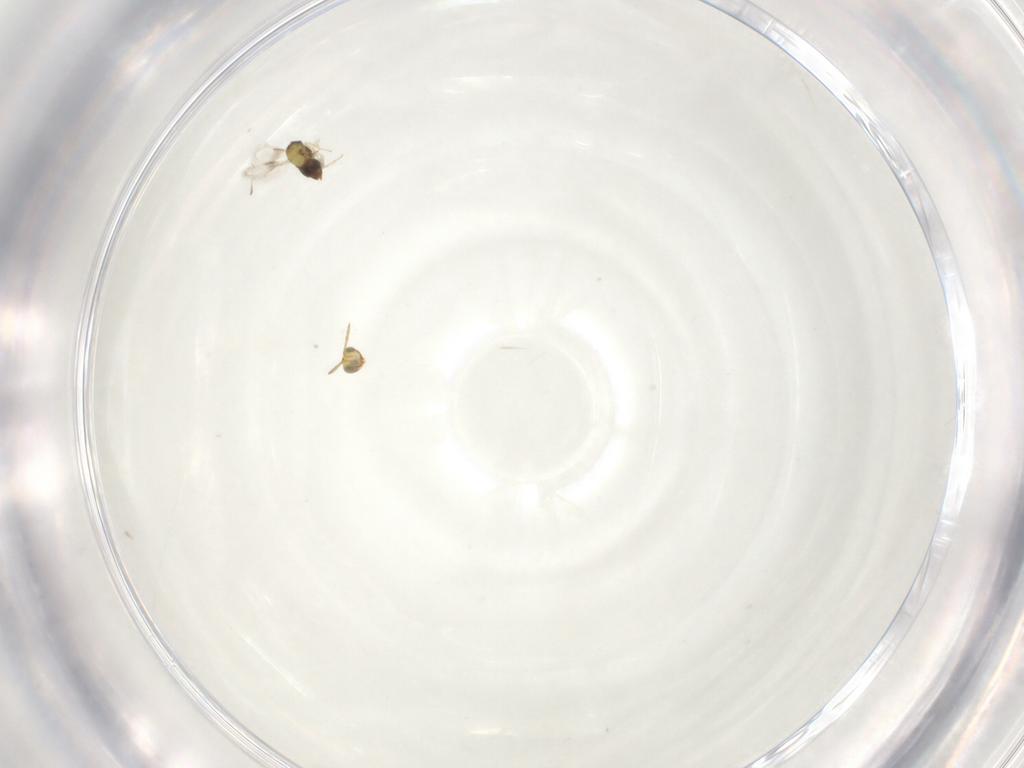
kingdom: Animalia
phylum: Arthropoda
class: Insecta
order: Hymenoptera
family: Aphelinidae
